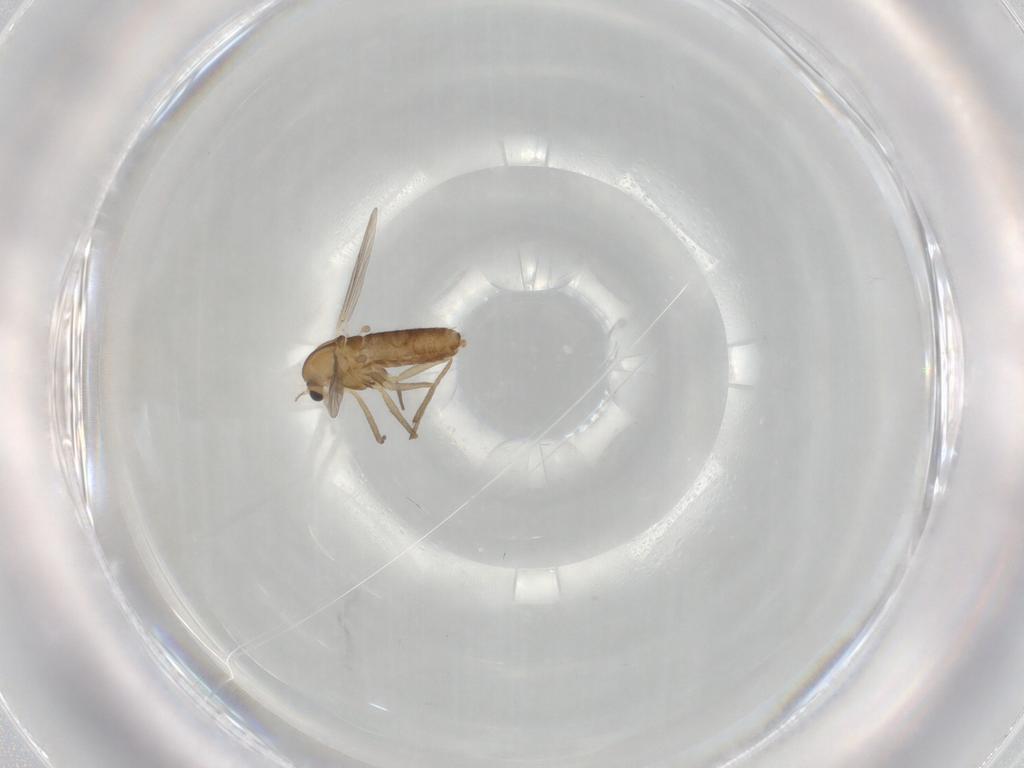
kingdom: Animalia
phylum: Arthropoda
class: Insecta
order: Diptera
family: Chironomidae
